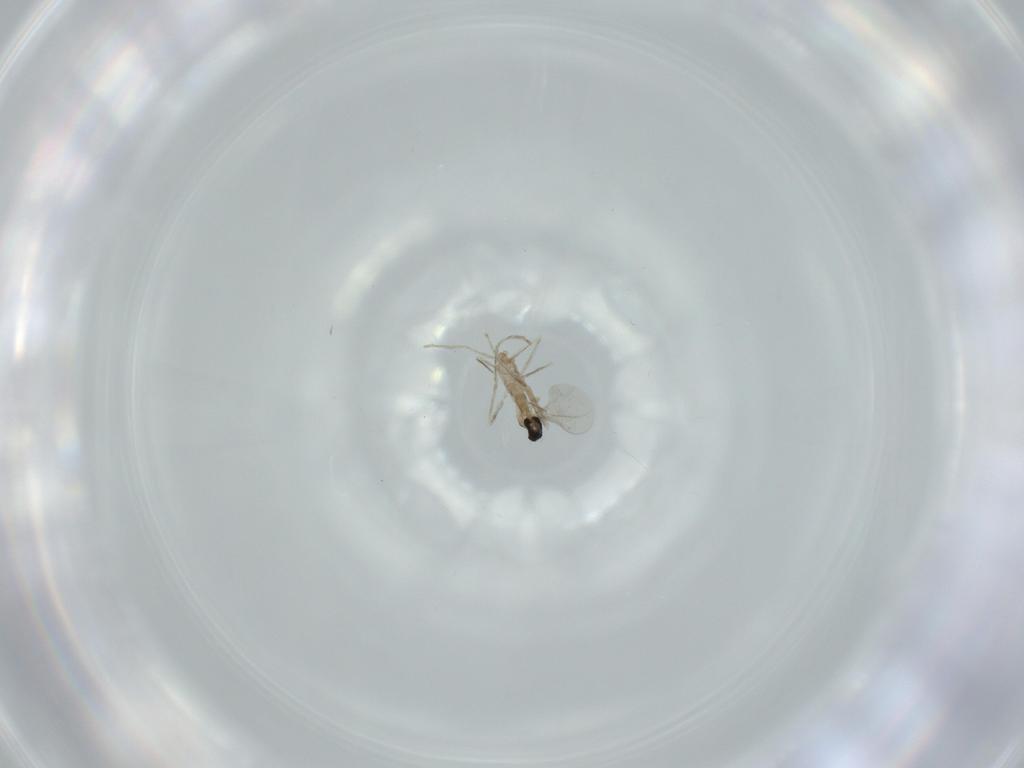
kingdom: Animalia
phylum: Arthropoda
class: Insecta
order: Diptera
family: Cecidomyiidae
